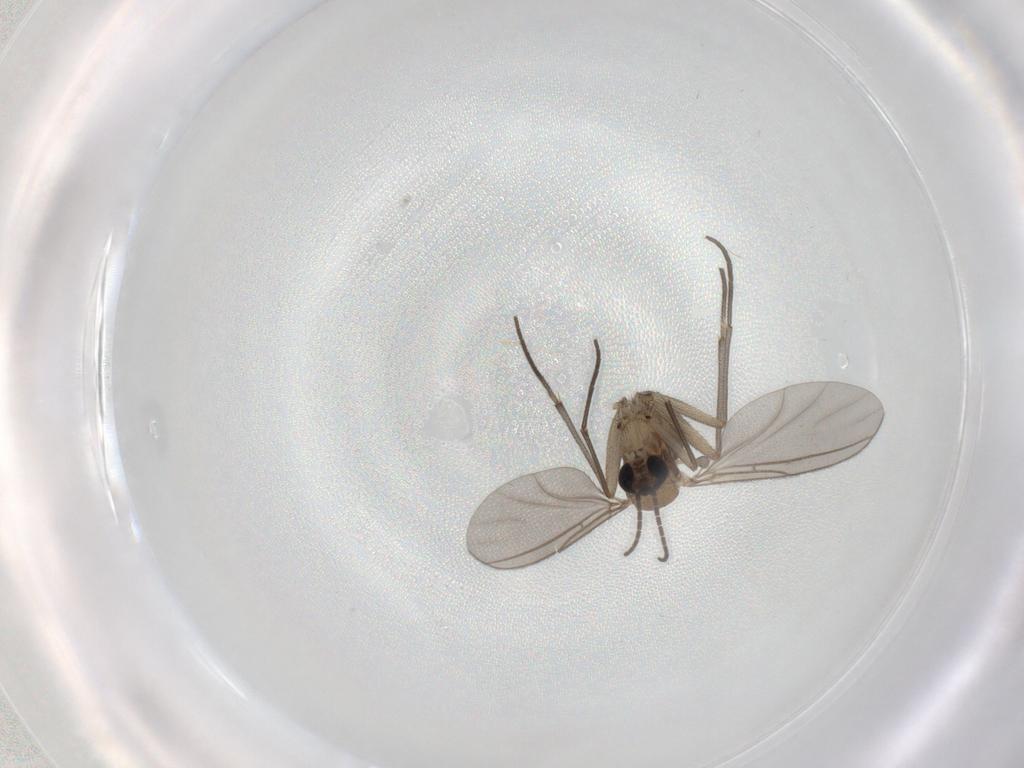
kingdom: Animalia
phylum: Arthropoda
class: Insecta
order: Diptera
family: Sciaridae
